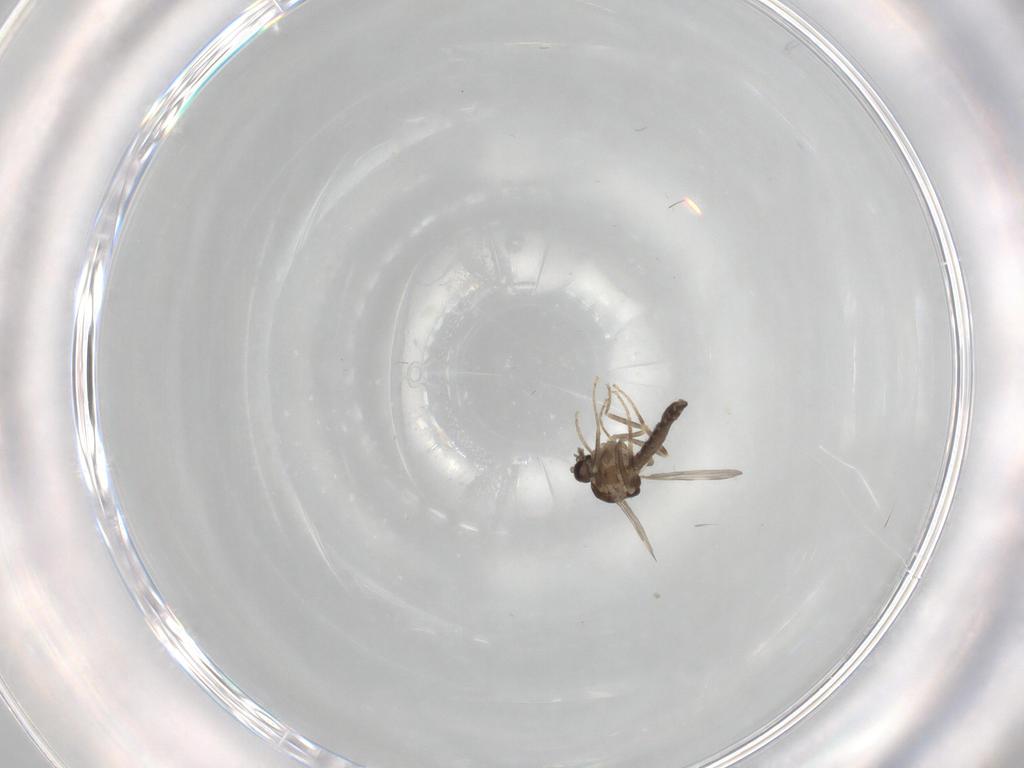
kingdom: Animalia
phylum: Arthropoda
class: Insecta
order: Diptera
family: Ceratopogonidae
